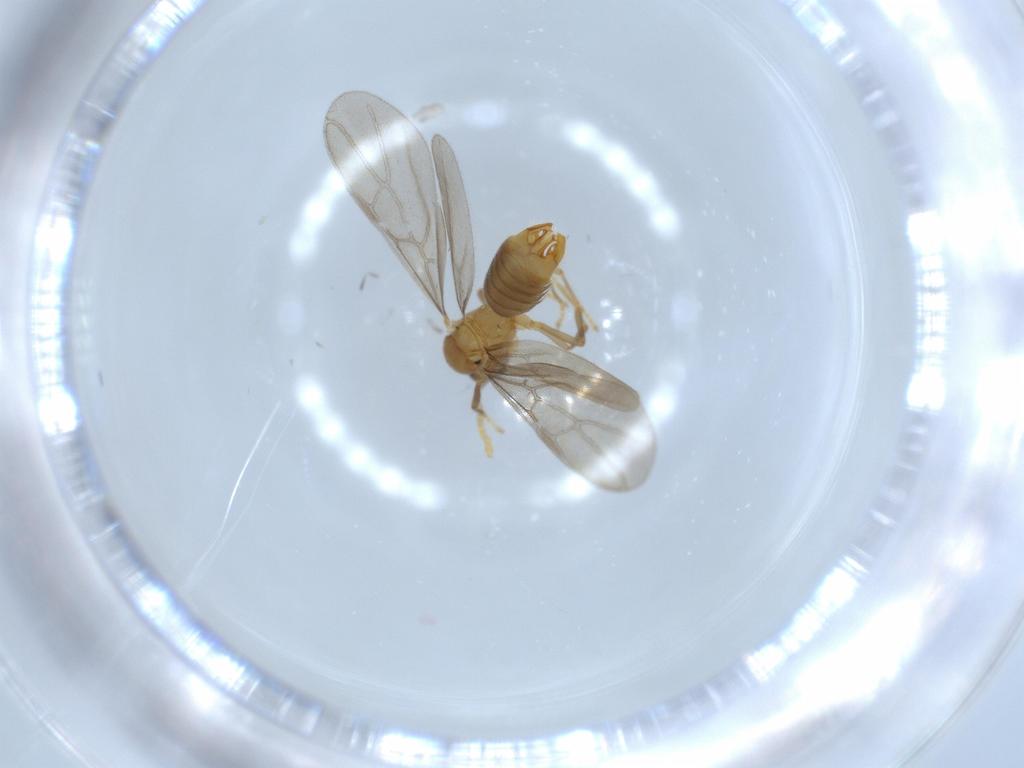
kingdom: Animalia
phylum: Arthropoda
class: Insecta
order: Hymenoptera
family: Formicidae
